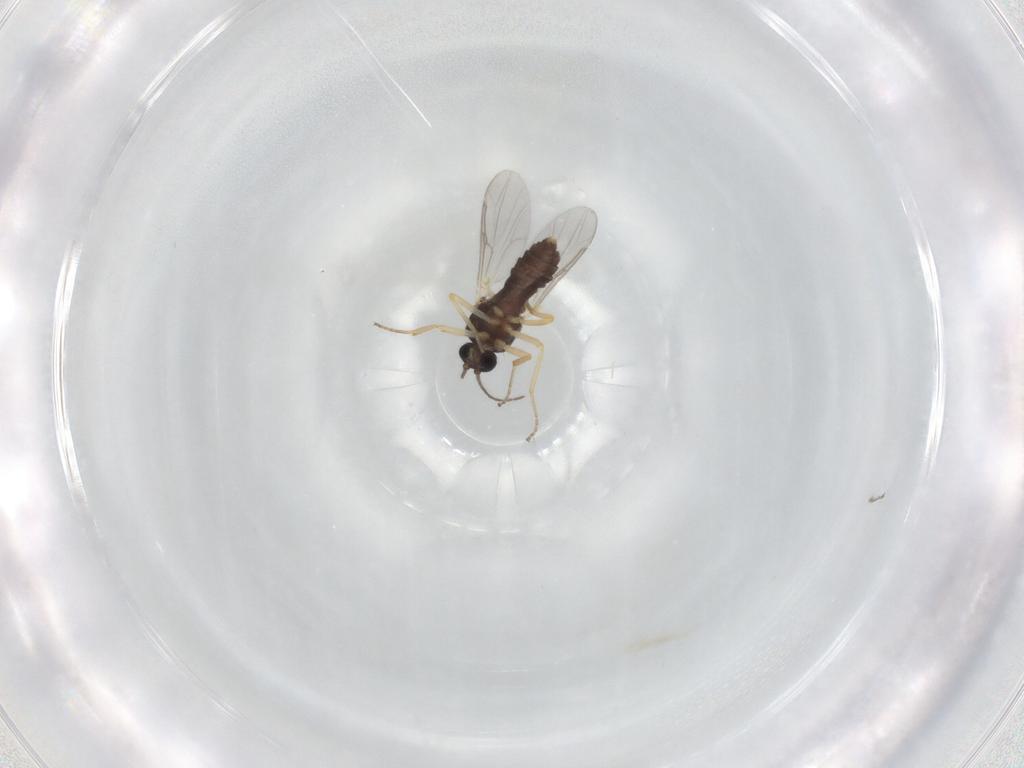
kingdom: Animalia
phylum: Arthropoda
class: Insecta
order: Diptera
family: Ceratopogonidae
